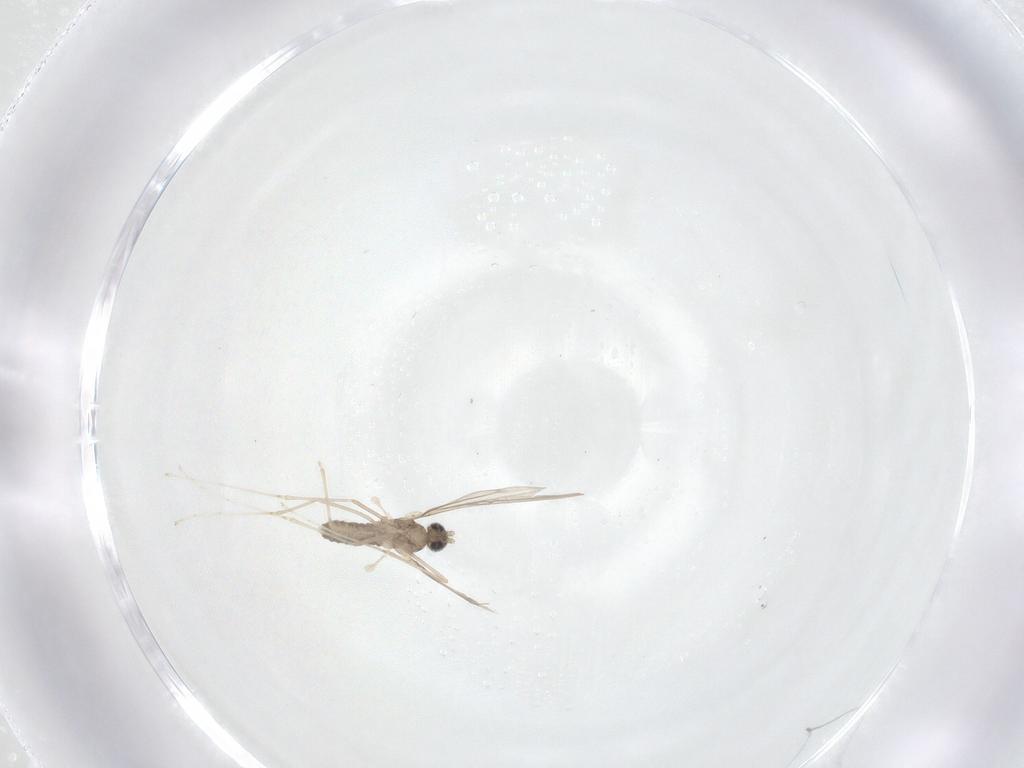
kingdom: Animalia
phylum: Arthropoda
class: Insecta
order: Diptera
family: Cecidomyiidae
